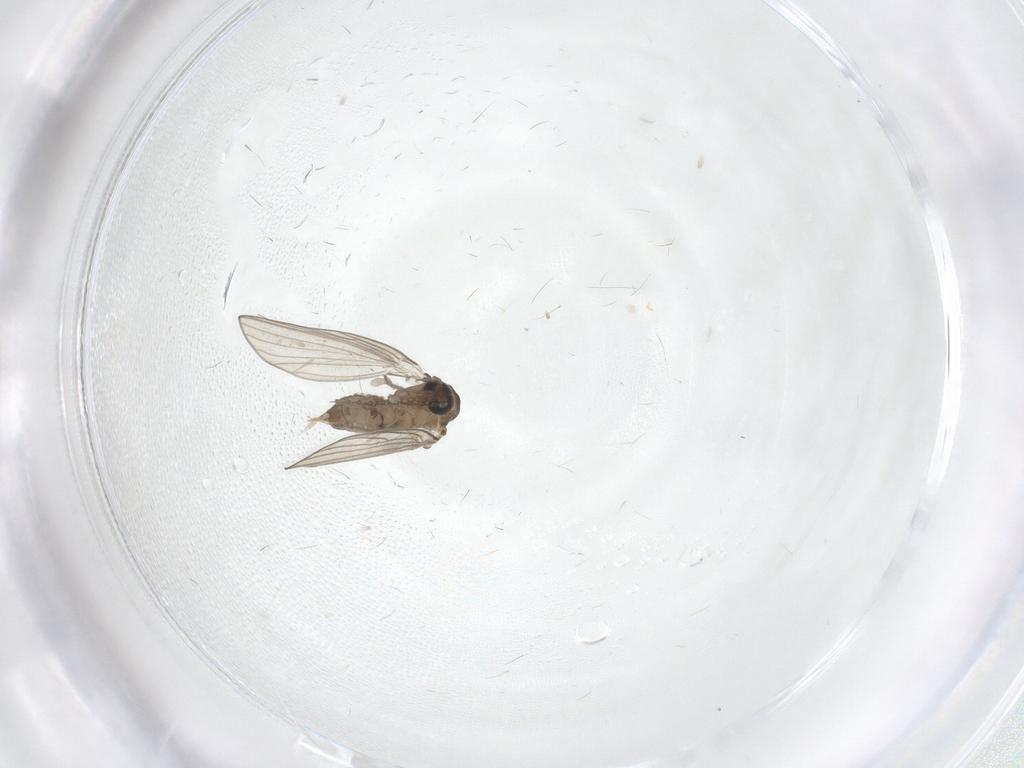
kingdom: Animalia
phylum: Arthropoda
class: Insecta
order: Diptera
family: Psychodidae
